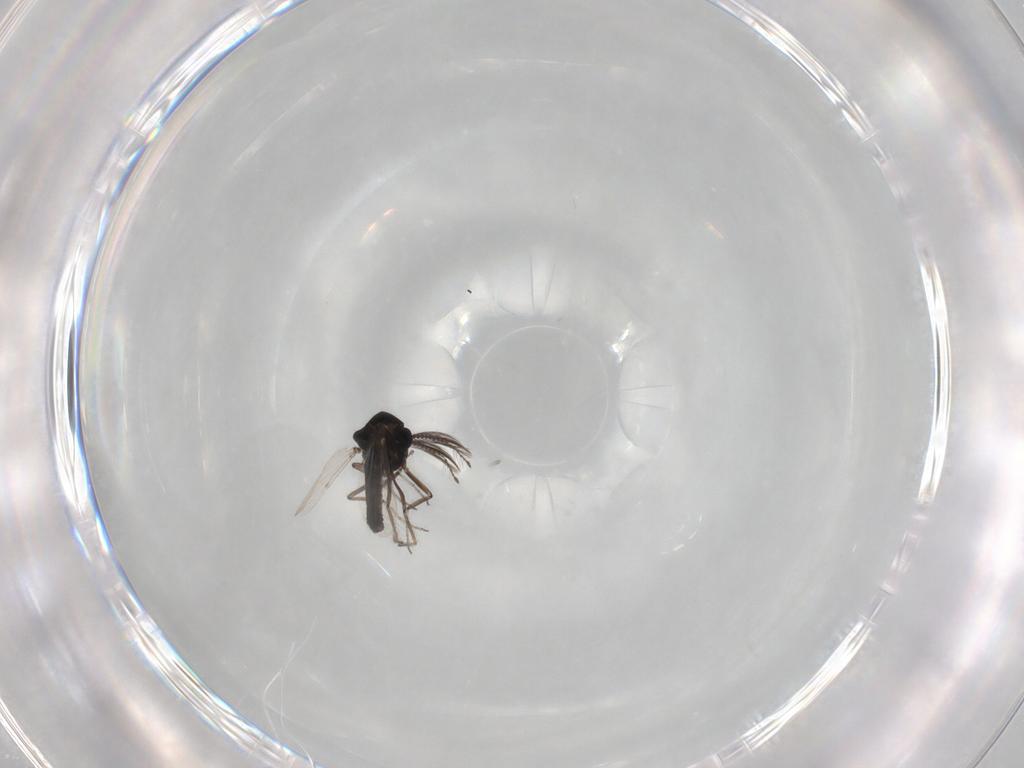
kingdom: Animalia
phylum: Arthropoda
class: Insecta
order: Diptera
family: Ceratopogonidae
